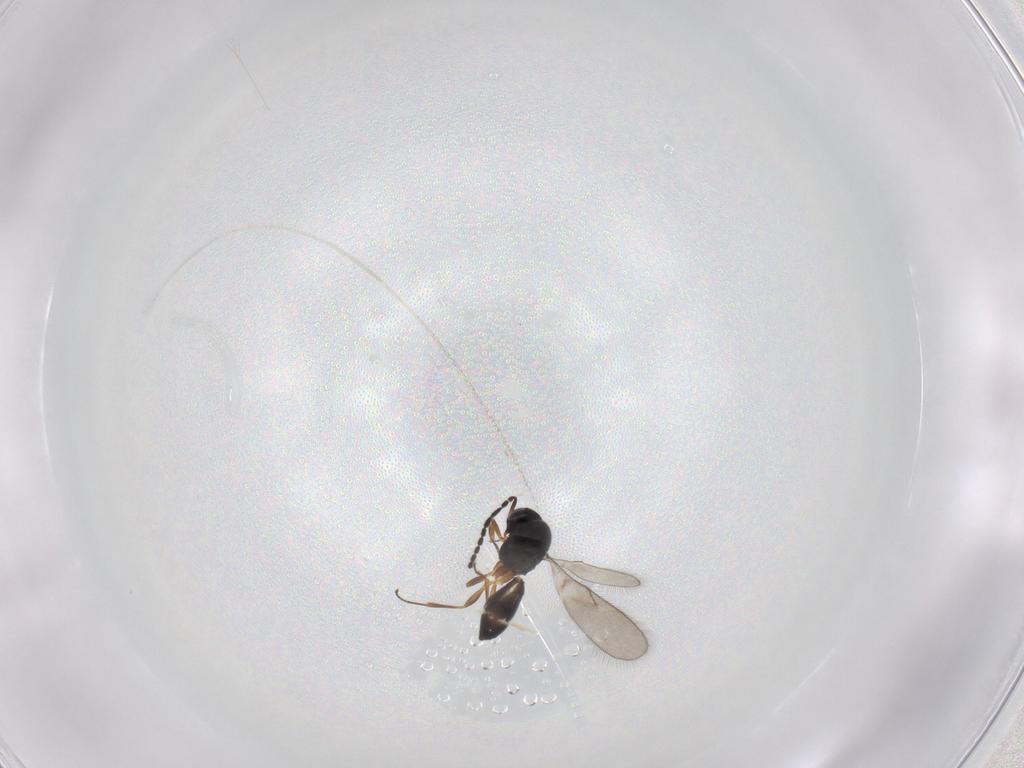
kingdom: Animalia
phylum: Arthropoda
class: Insecta
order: Hymenoptera
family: Scelionidae
